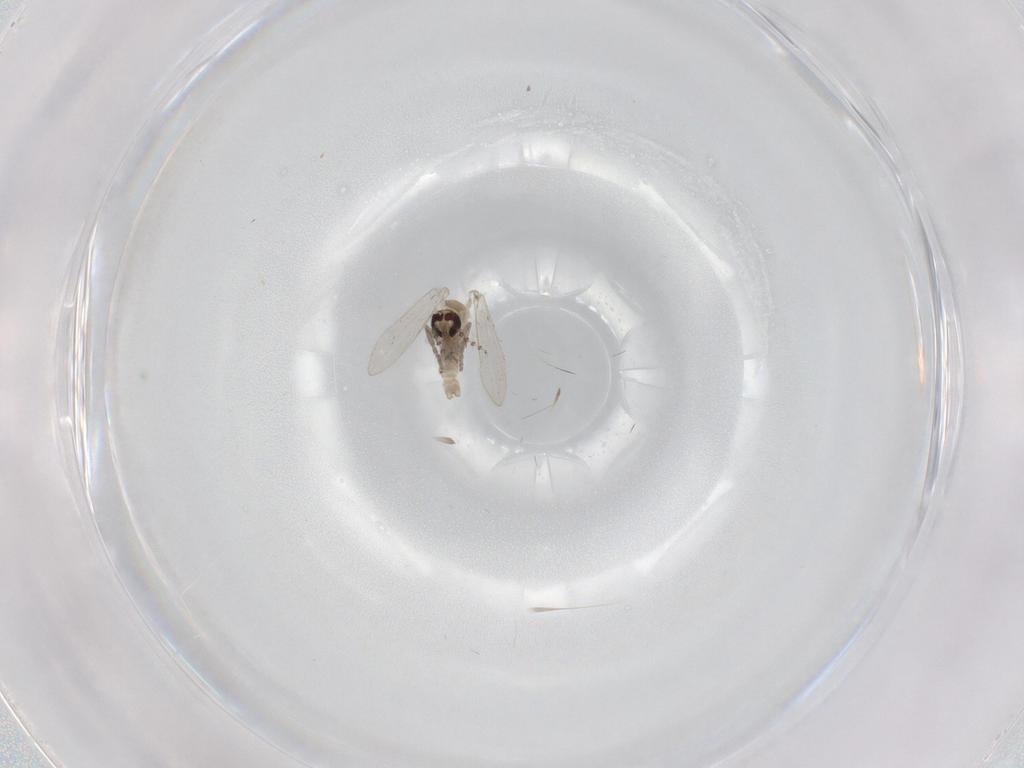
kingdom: Animalia
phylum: Arthropoda
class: Insecta
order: Diptera
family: Psychodidae
